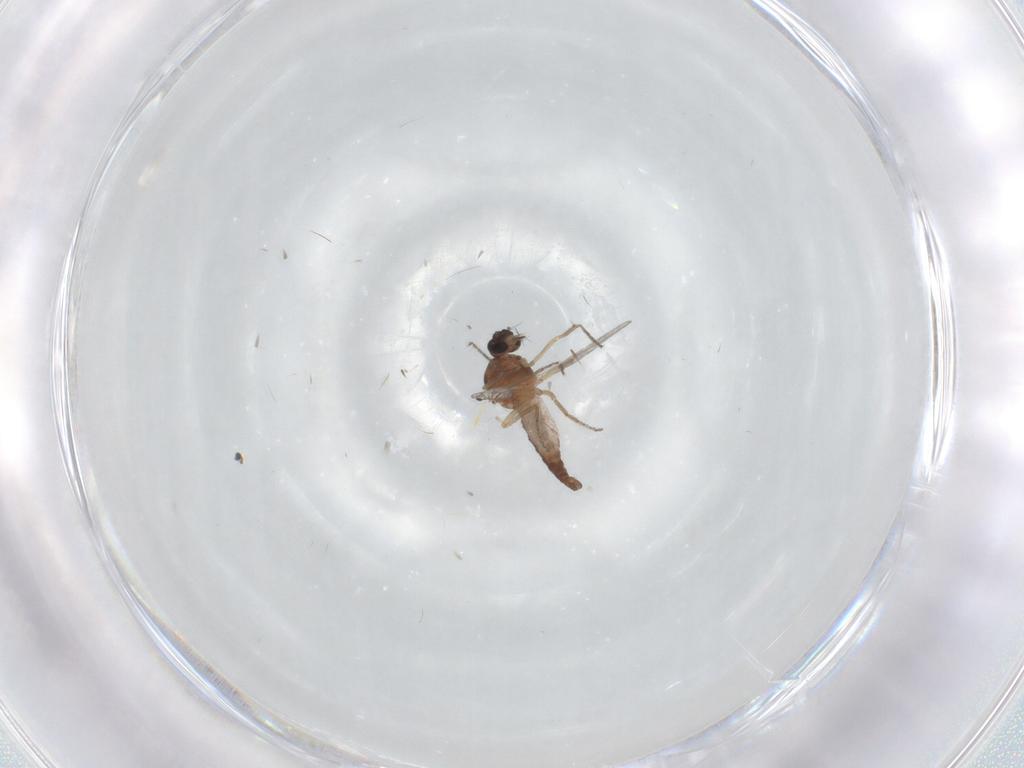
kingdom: Animalia
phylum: Arthropoda
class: Insecta
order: Diptera
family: Ceratopogonidae
